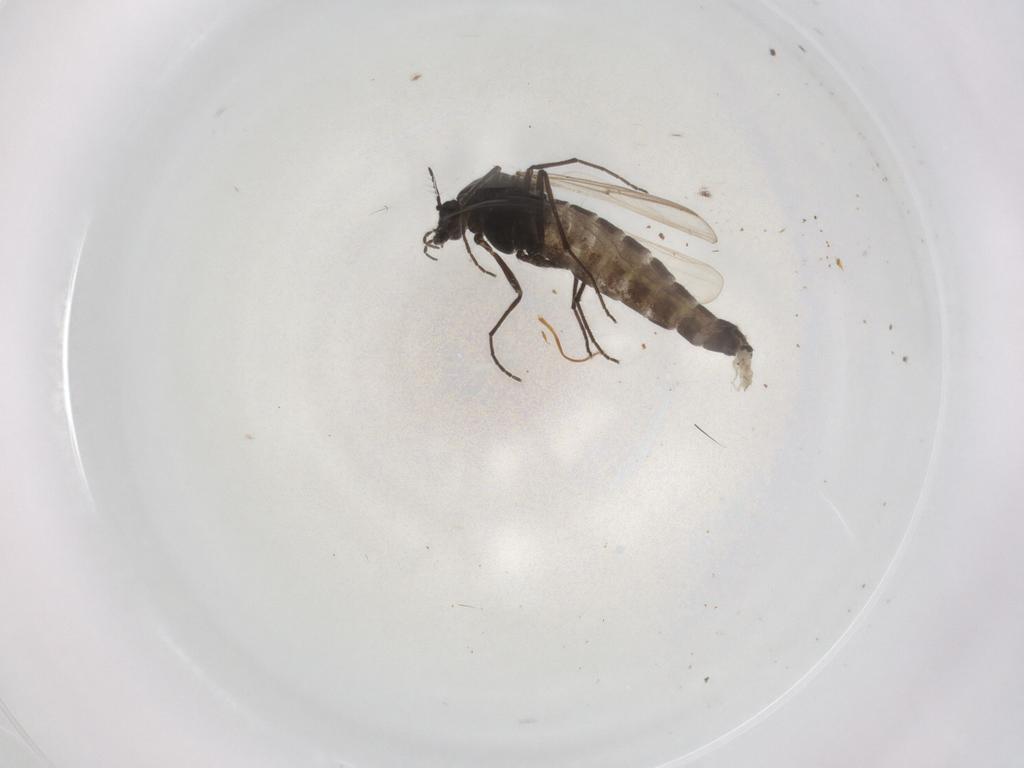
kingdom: Animalia
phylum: Arthropoda
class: Insecta
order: Diptera
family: Chironomidae
